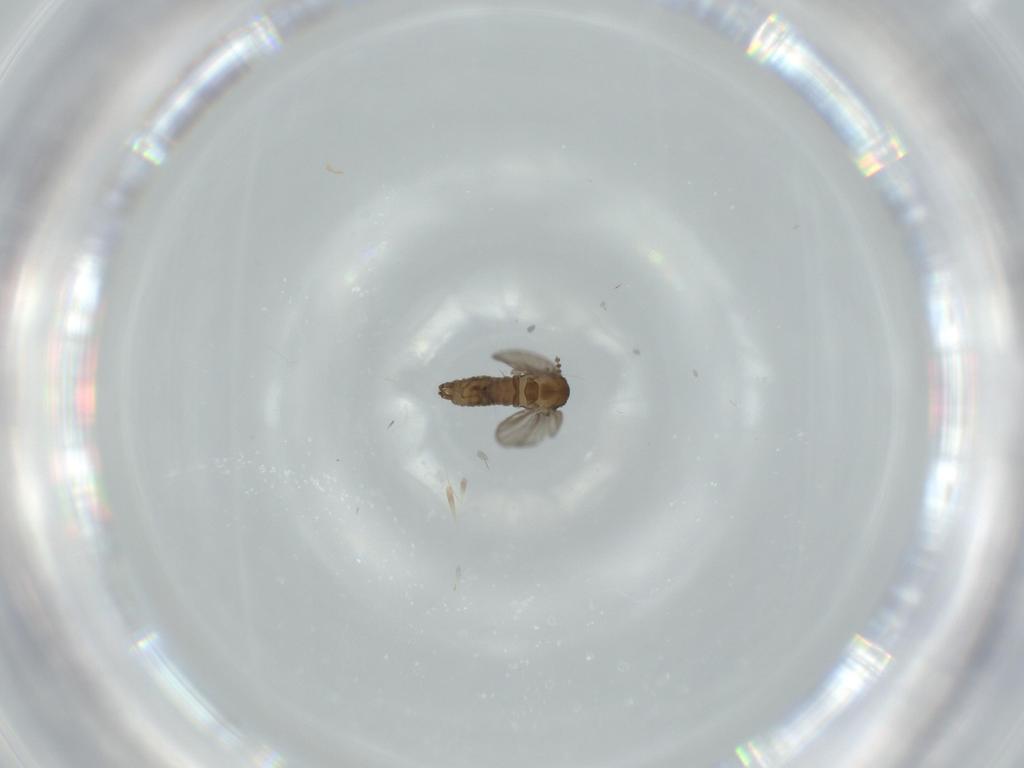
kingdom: Animalia
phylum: Arthropoda
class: Insecta
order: Diptera
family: Psychodidae
